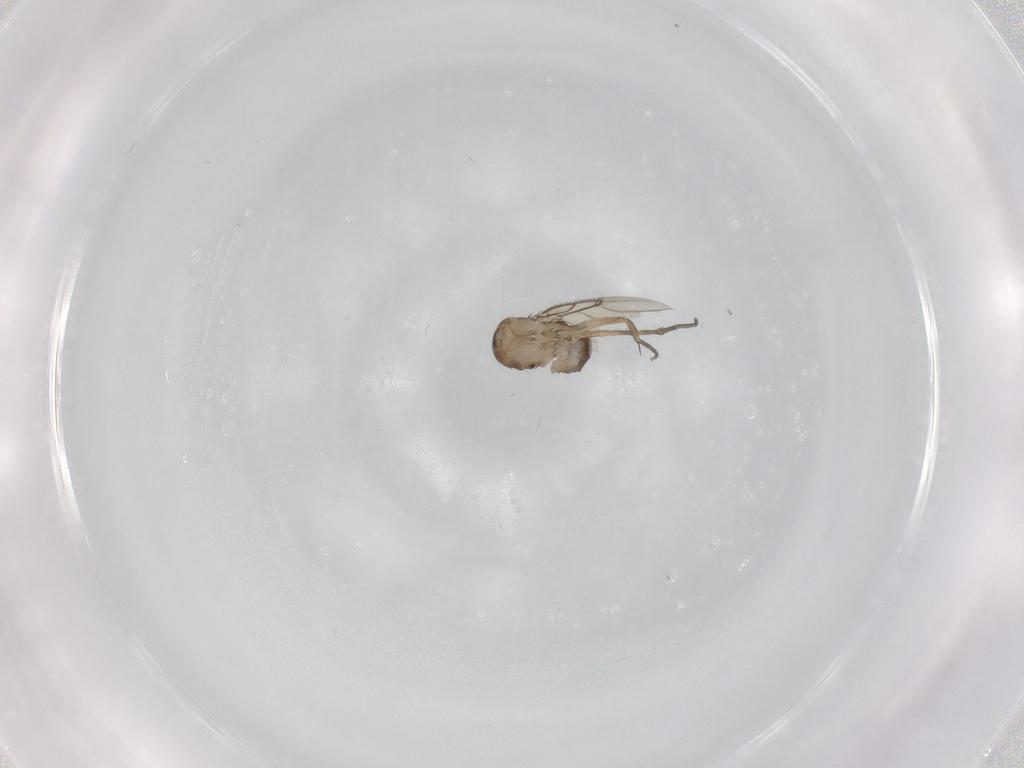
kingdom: Animalia
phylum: Arthropoda
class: Insecta
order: Diptera
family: Phoridae
